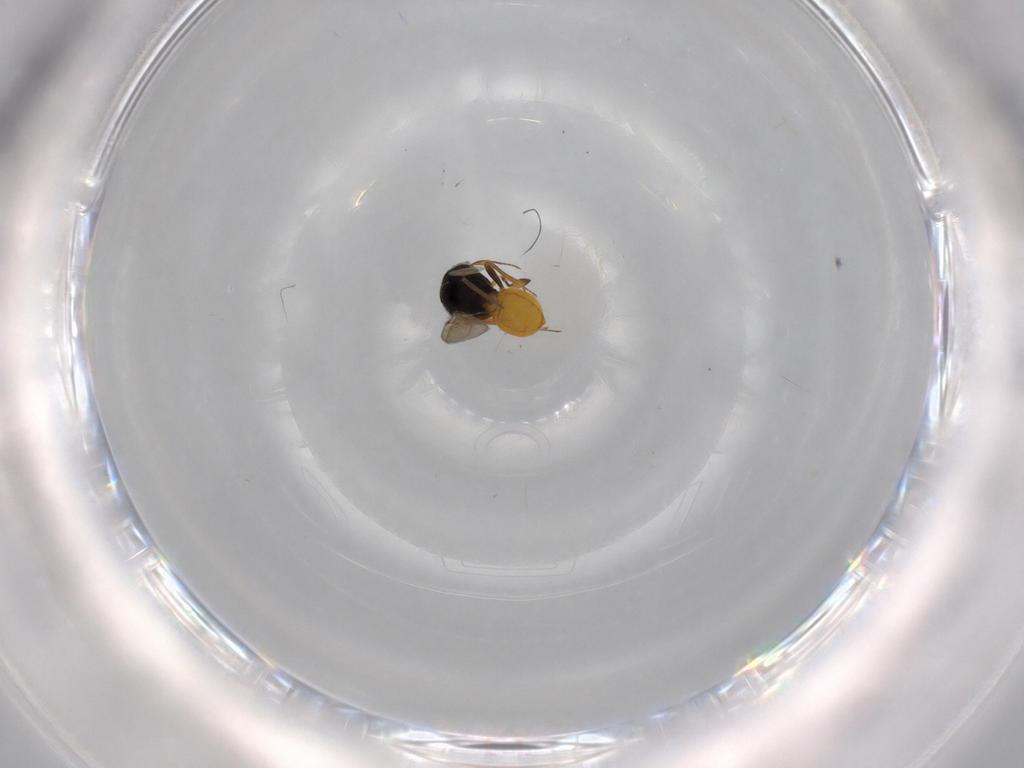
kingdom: Animalia
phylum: Arthropoda
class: Insecta
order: Hymenoptera
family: Scelionidae
